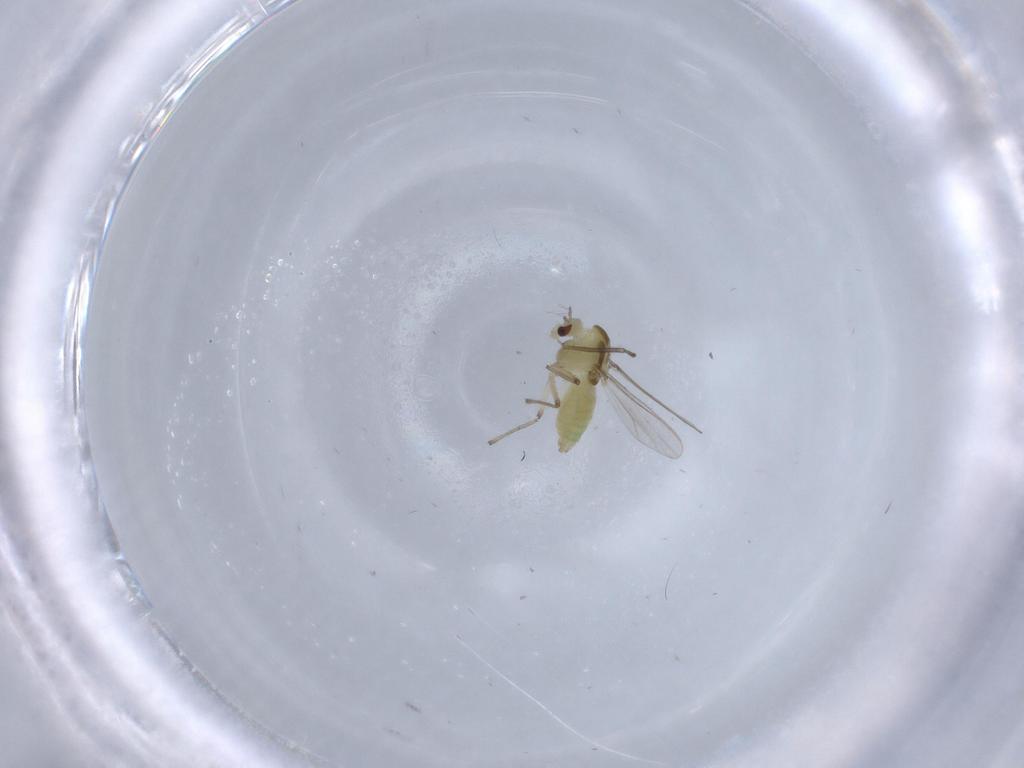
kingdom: Animalia
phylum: Arthropoda
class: Insecta
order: Diptera
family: Chironomidae
